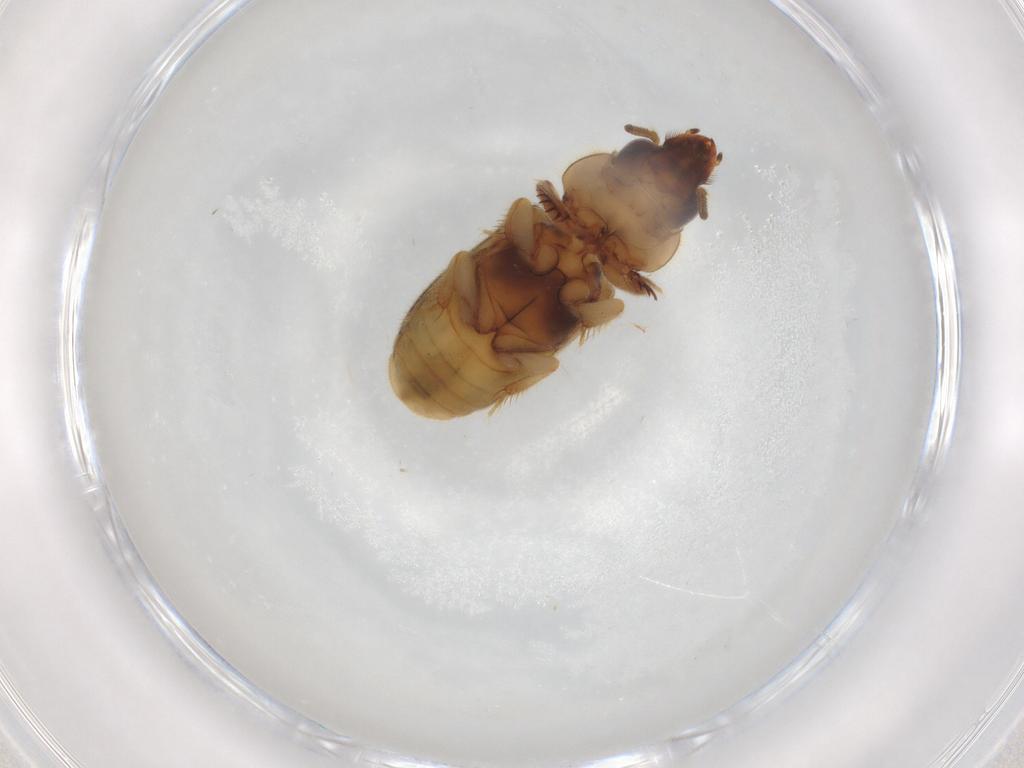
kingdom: Animalia
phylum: Arthropoda
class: Insecta
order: Coleoptera
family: Heteroceridae
